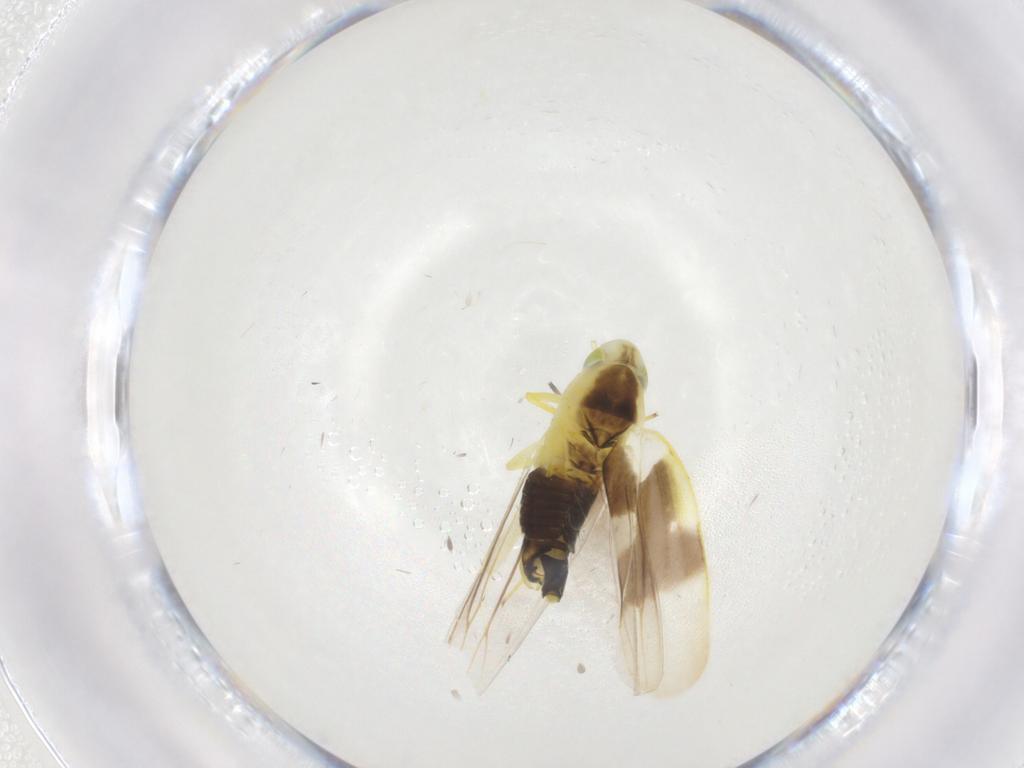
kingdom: Animalia
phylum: Arthropoda
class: Insecta
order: Hemiptera
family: Cicadellidae
